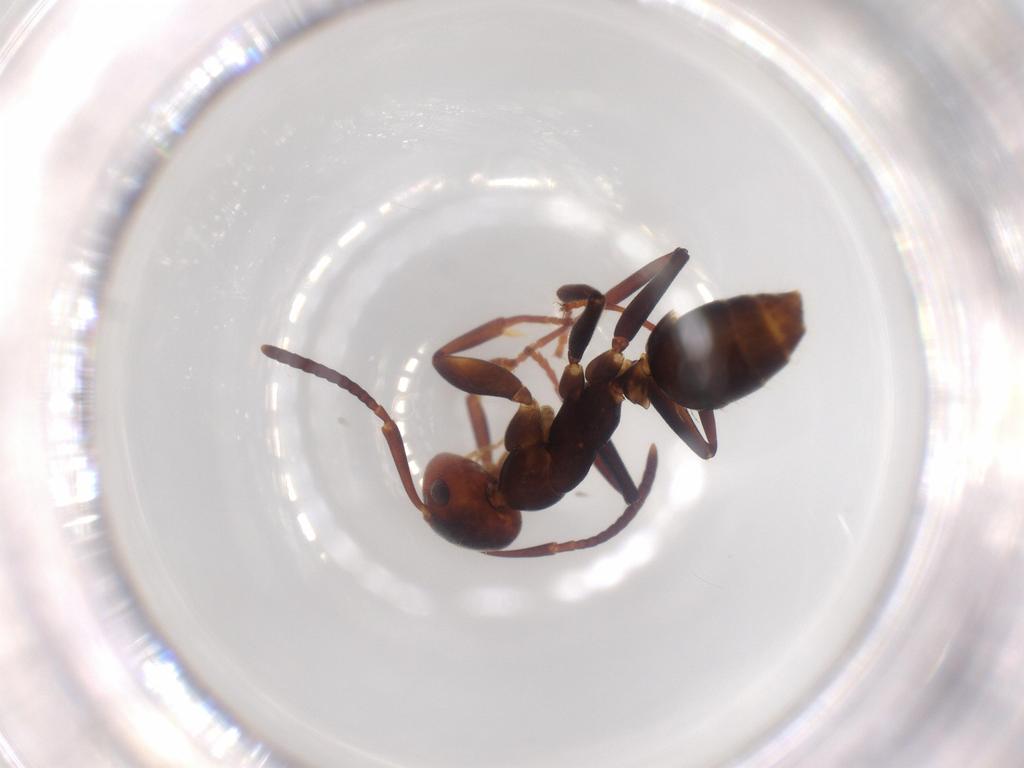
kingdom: Animalia
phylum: Arthropoda
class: Insecta
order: Hymenoptera
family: Formicidae
